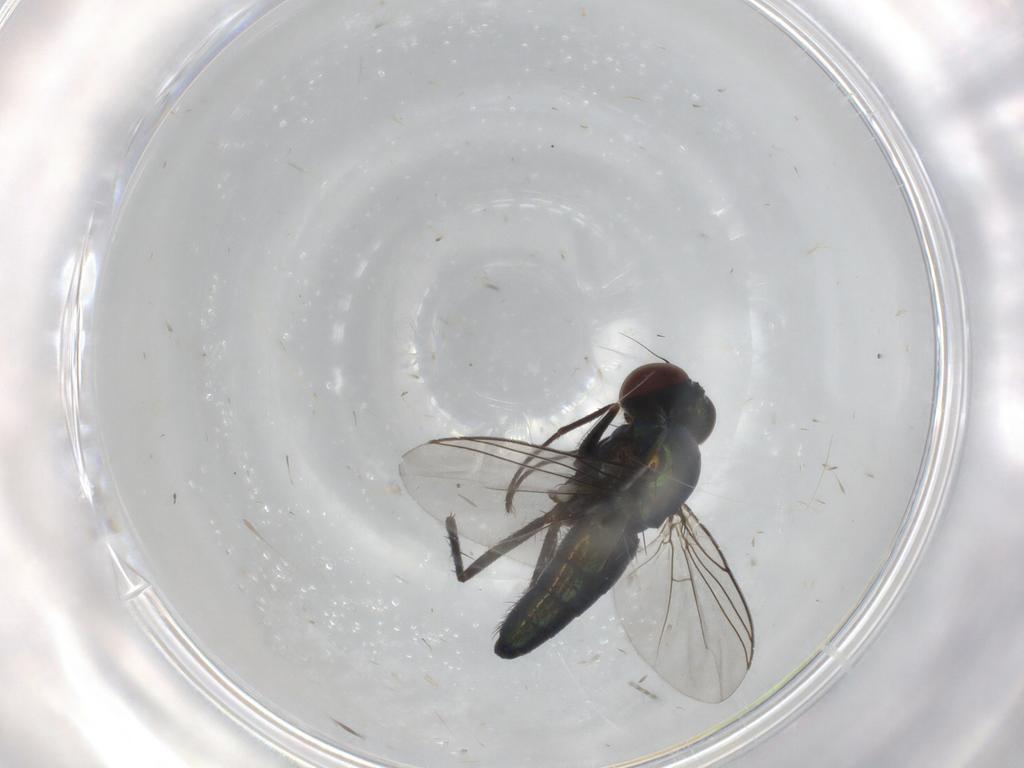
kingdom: Animalia
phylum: Arthropoda
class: Insecta
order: Diptera
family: Dolichopodidae
